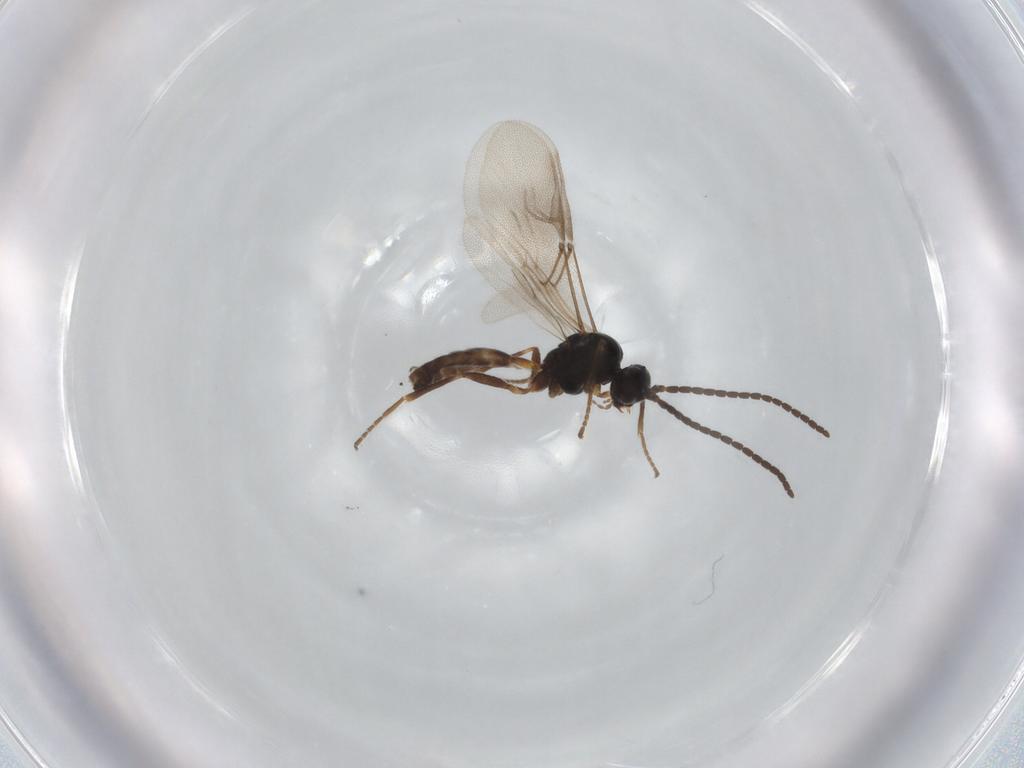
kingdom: Animalia
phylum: Arthropoda
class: Insecta
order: Hymenoptera
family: Braconidae
